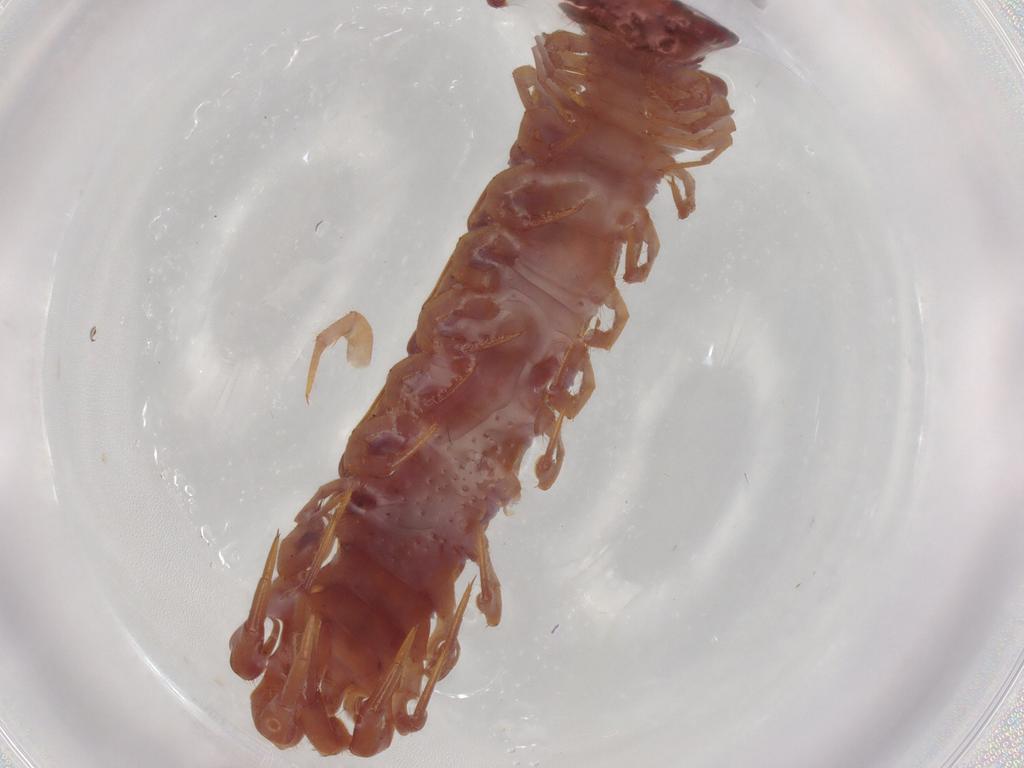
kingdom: Animalia
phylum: Arthropoda
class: Chilopoda
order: Lithobiomorpha
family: Lithobiidae
